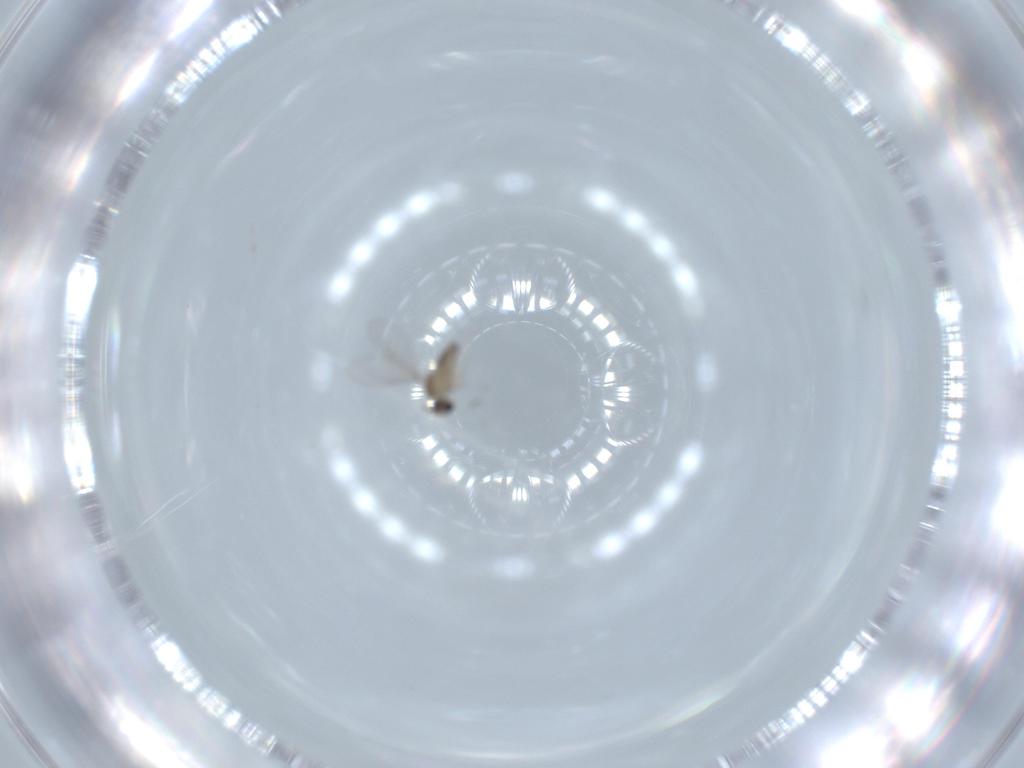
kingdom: Animalia
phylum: Arthropoda
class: Insecta
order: Diptera
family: Cecidomyiidae
